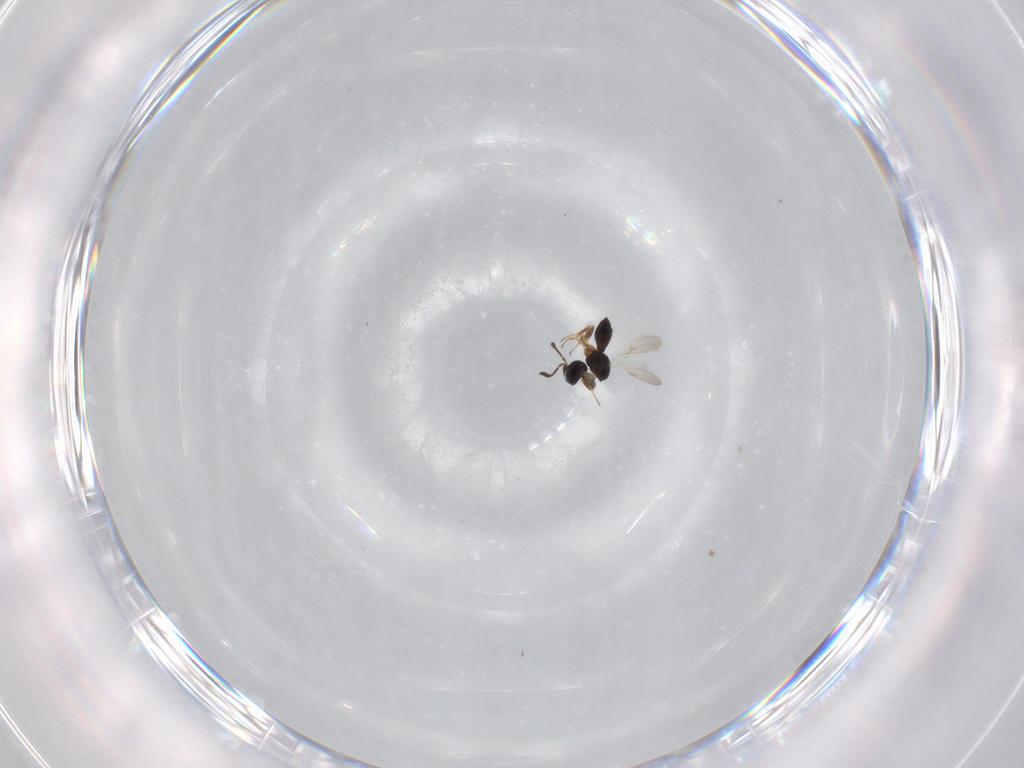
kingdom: Animalia
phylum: Arthropoda
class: Insecta
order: Hymenoptera
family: Scelionidae
